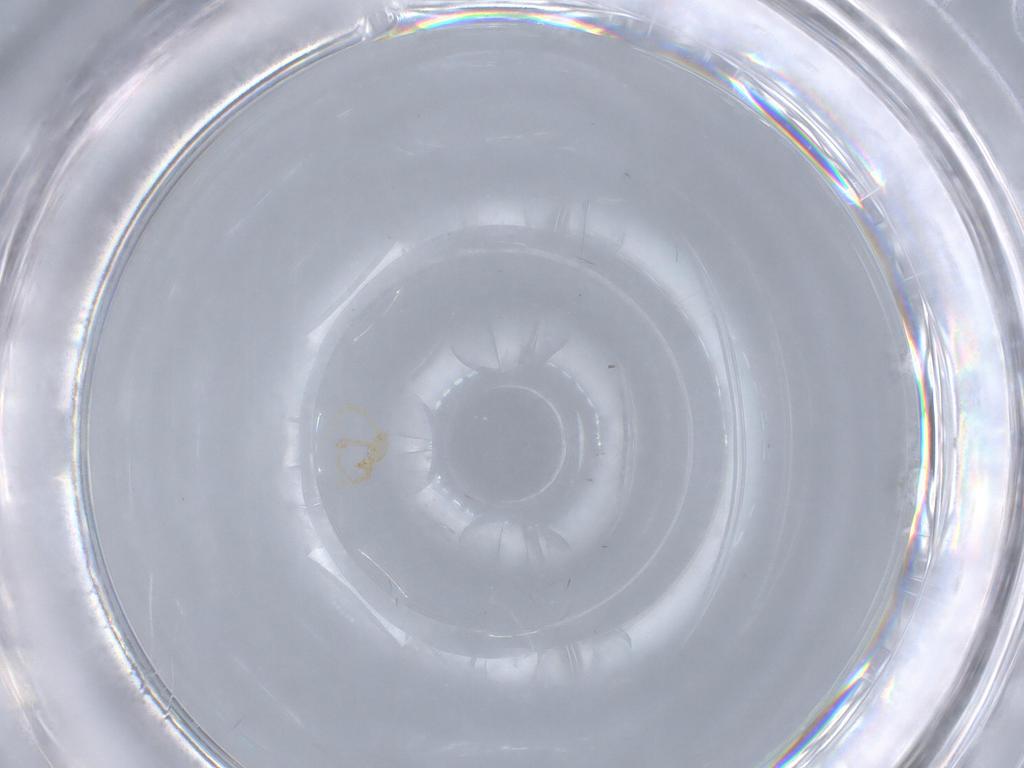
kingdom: Animalia
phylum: Arthropoda
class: Arachnida
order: Trombidiformes
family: Erythraeidae
